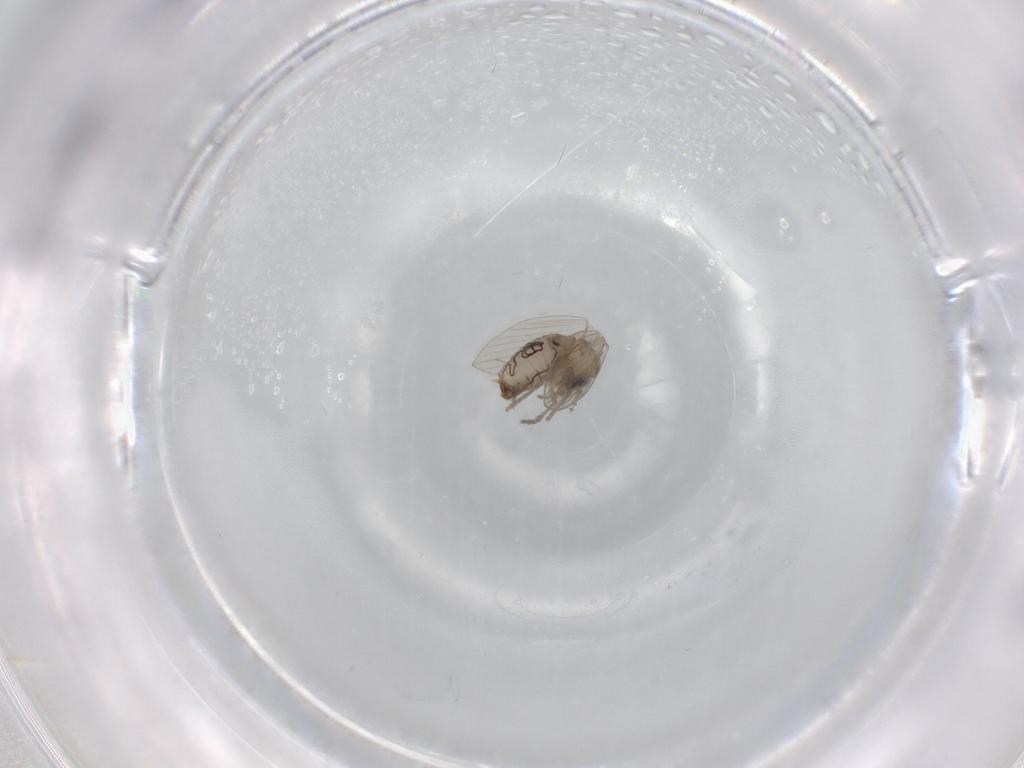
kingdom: Animalia
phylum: Arthropoda
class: Insecta
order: Diptera
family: Psychodidae
